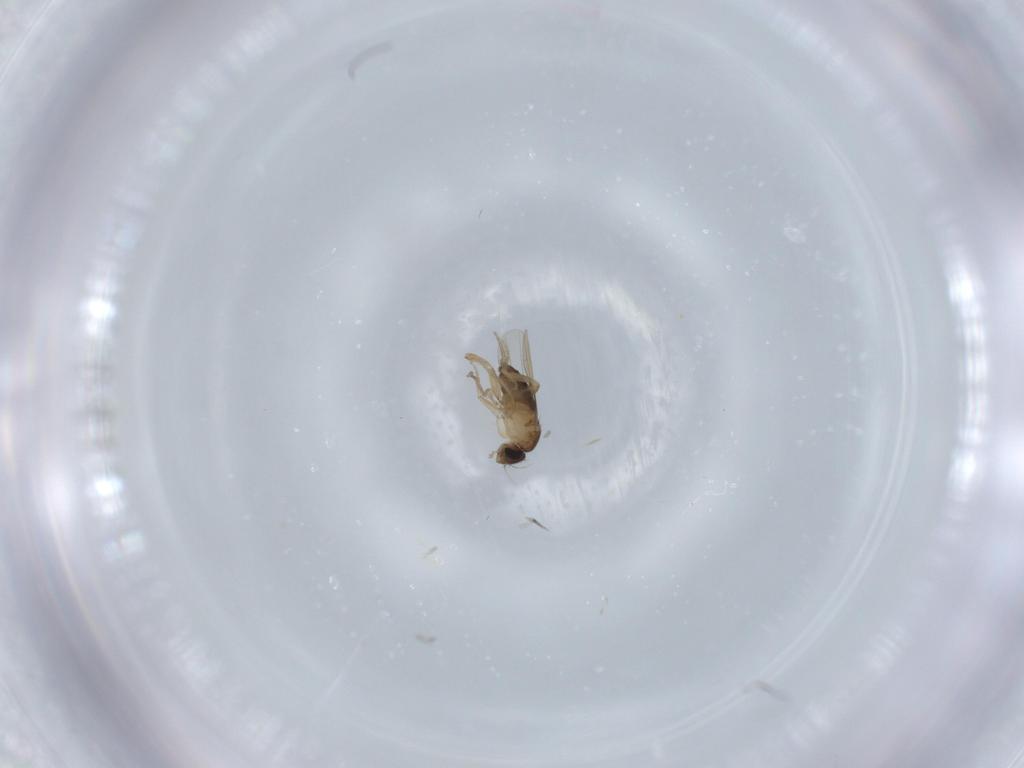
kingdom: Animalia
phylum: Arthropoda
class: Insecta
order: Diptera
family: Phoridae
